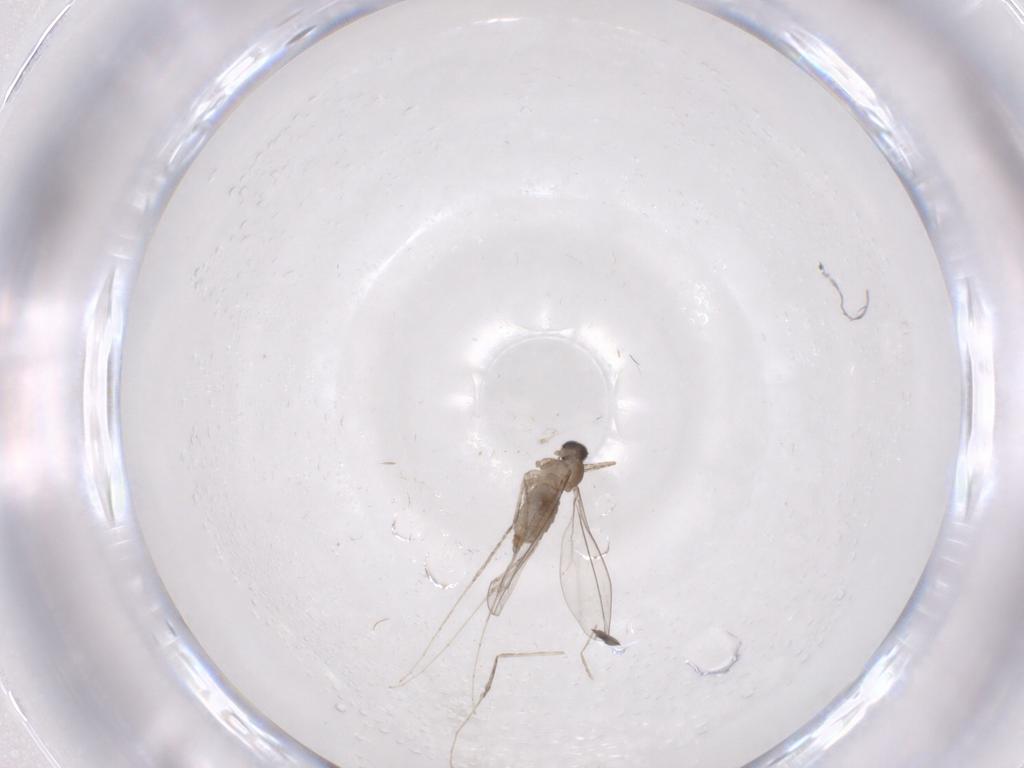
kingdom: Animalia
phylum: Arthropoda
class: Insecta
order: Diptera
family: Cecidomyiidae
